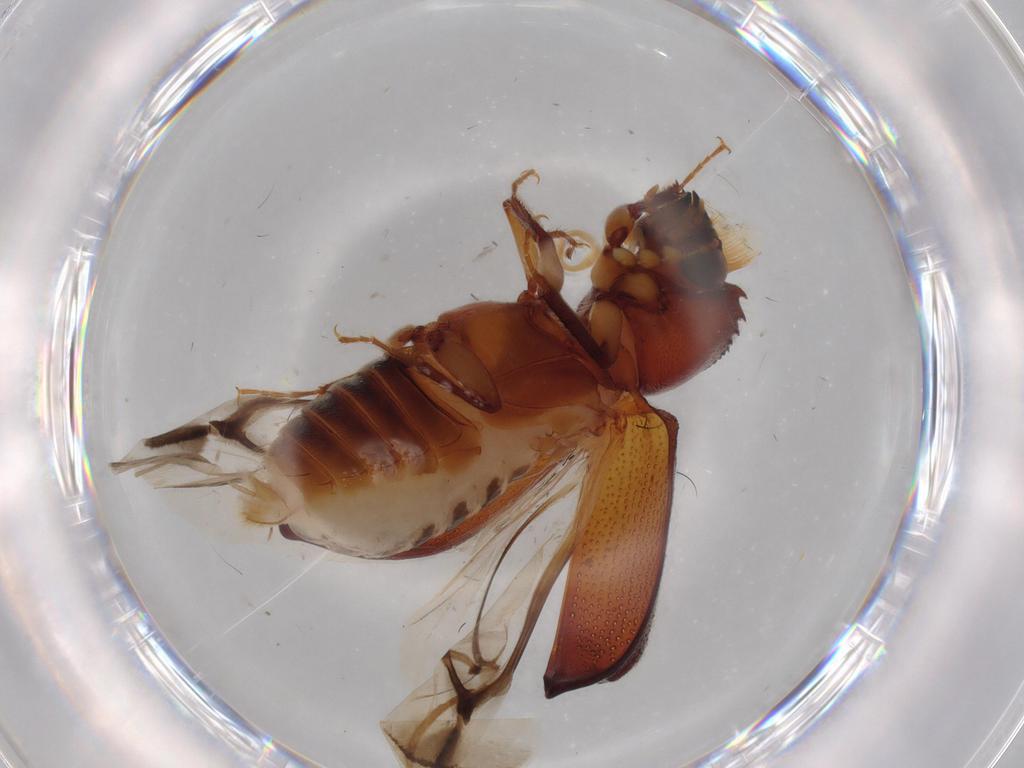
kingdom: Animalia
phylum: Arthropoda
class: Insecta
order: Coleoptera
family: Bostrichidae
